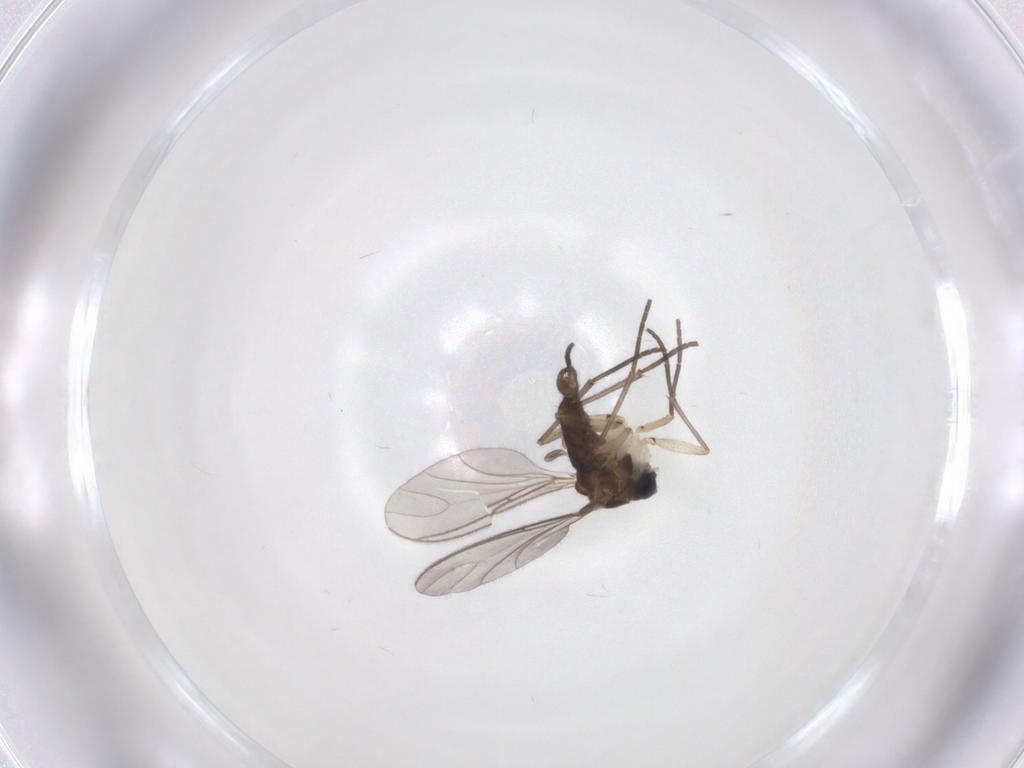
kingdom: Animalia
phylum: Arthropoda
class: Insecta
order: Diptera
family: Sciaridae
